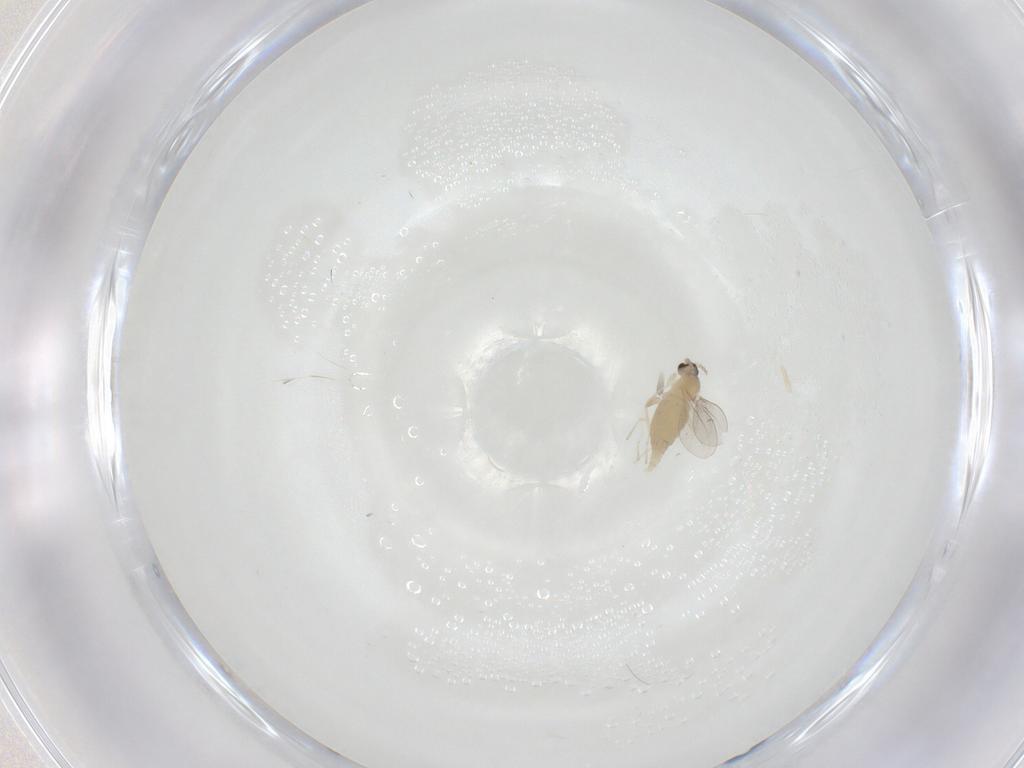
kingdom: Animalia
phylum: Arthropoda
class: Insecta
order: Diptera
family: Cecidomyiidae
